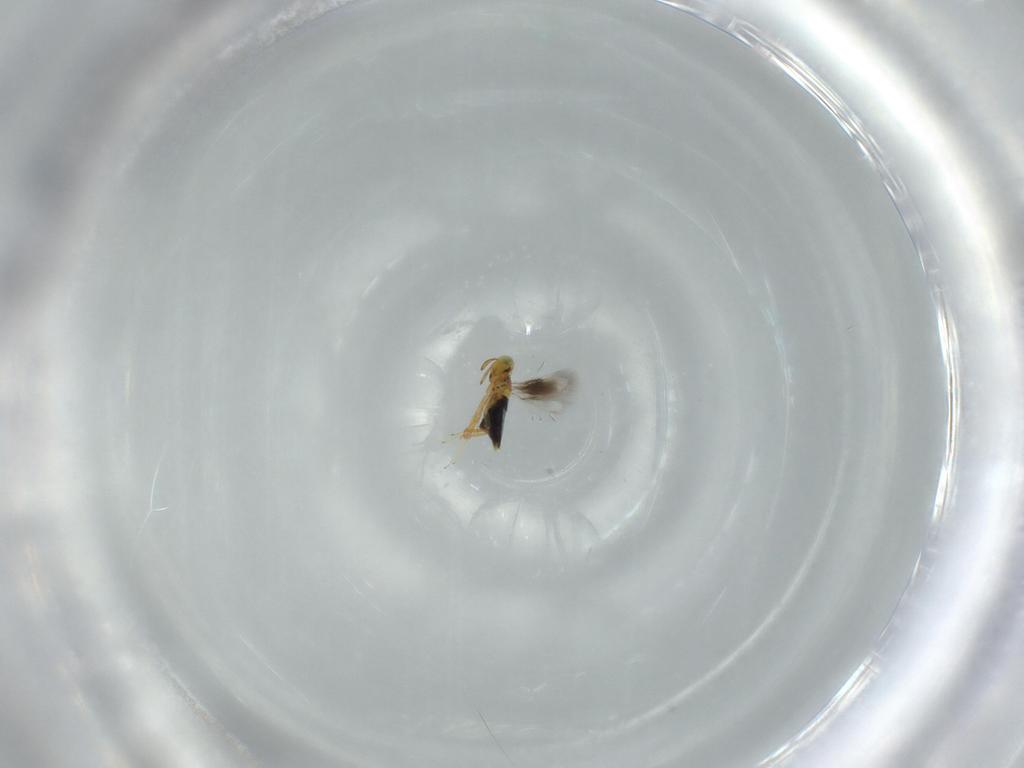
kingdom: Animalia
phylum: Arthropoda
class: Insecta
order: Hymenoptera
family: Signiphoridae
